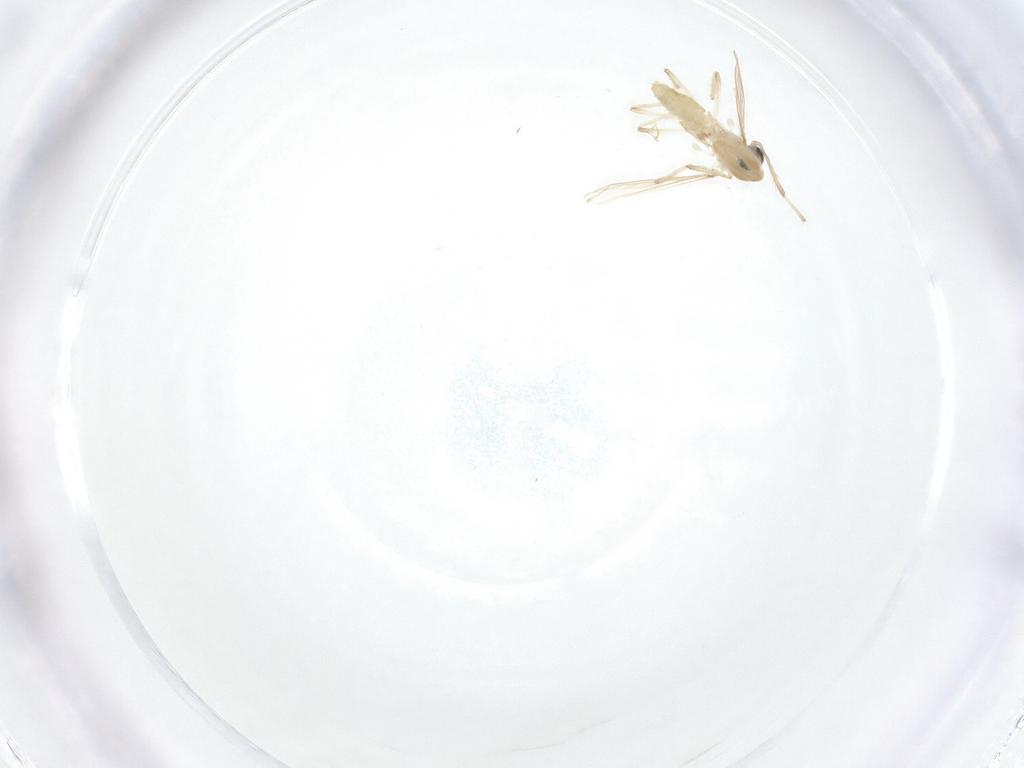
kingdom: Animalia
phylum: Arthropoda
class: Insecta
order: Diptera
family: Chironomidae
